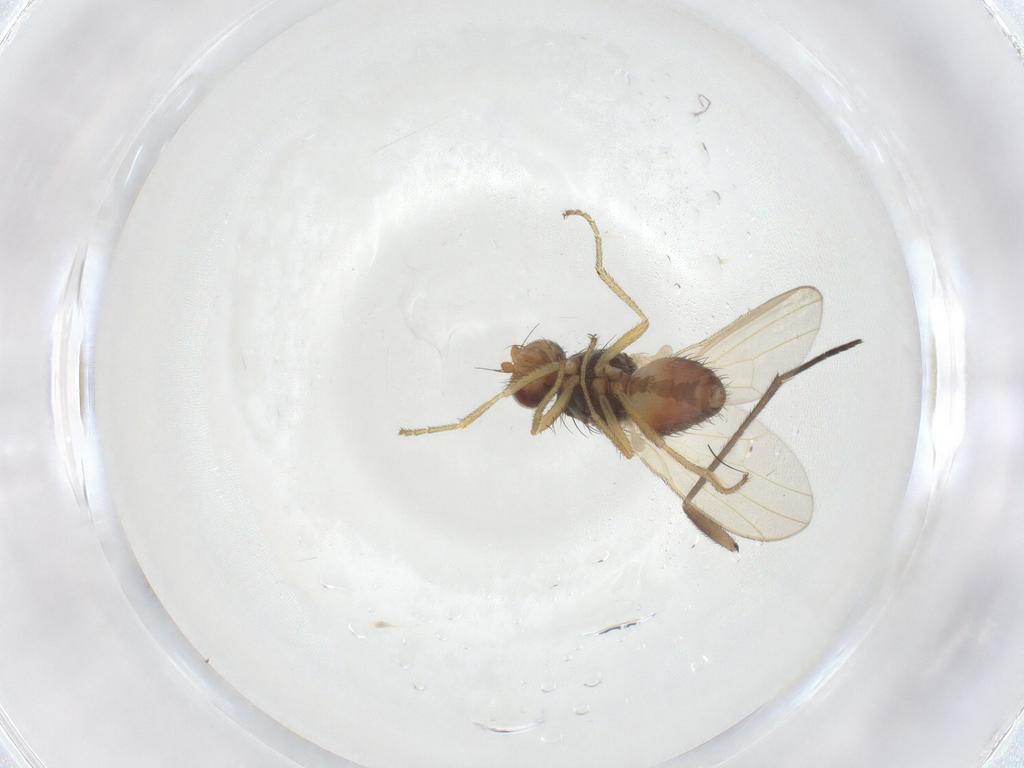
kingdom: Animalia
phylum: Arthropoda
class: Insecta
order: Diptera
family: Heleomyzidae
